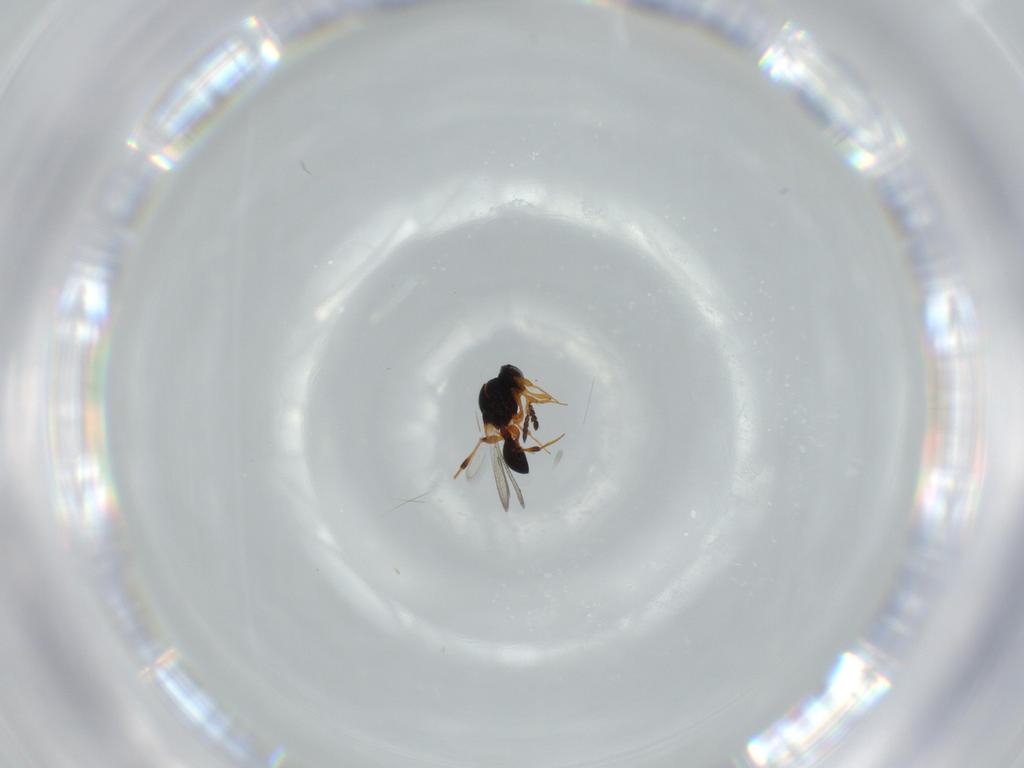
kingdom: Animalia
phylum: Arthropoda
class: Insecta
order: Hymenoptera
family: Platygastridae
